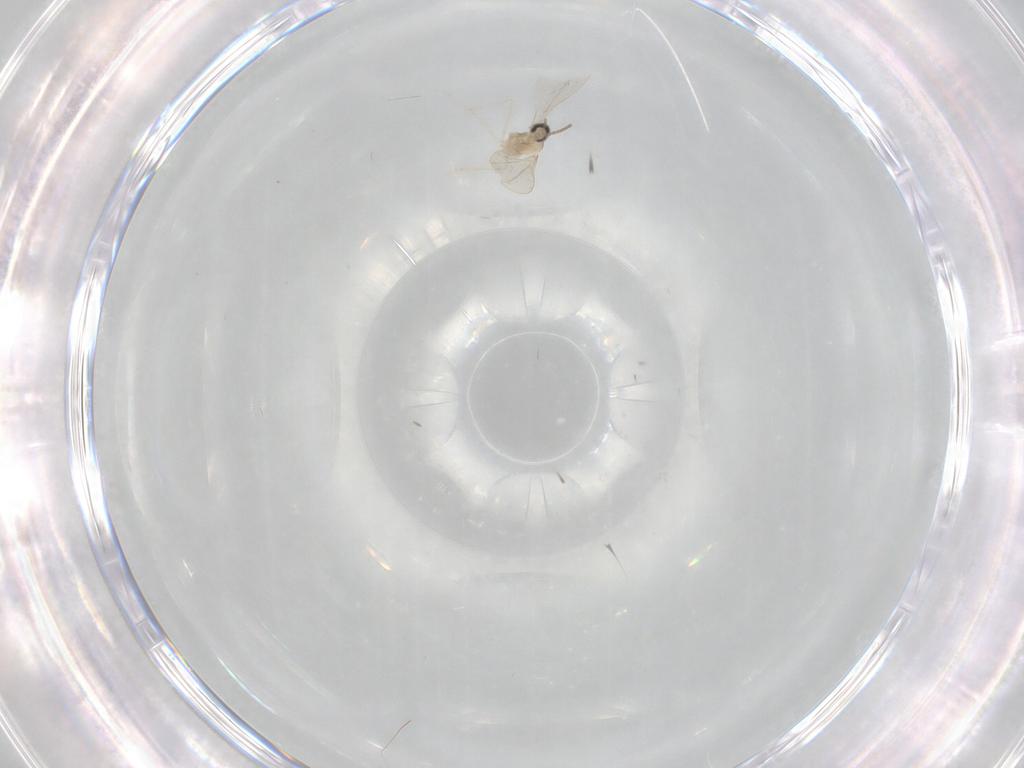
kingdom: Animalia
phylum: Arthropoda
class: Insecta
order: Diptera
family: Cecidomyiidae
